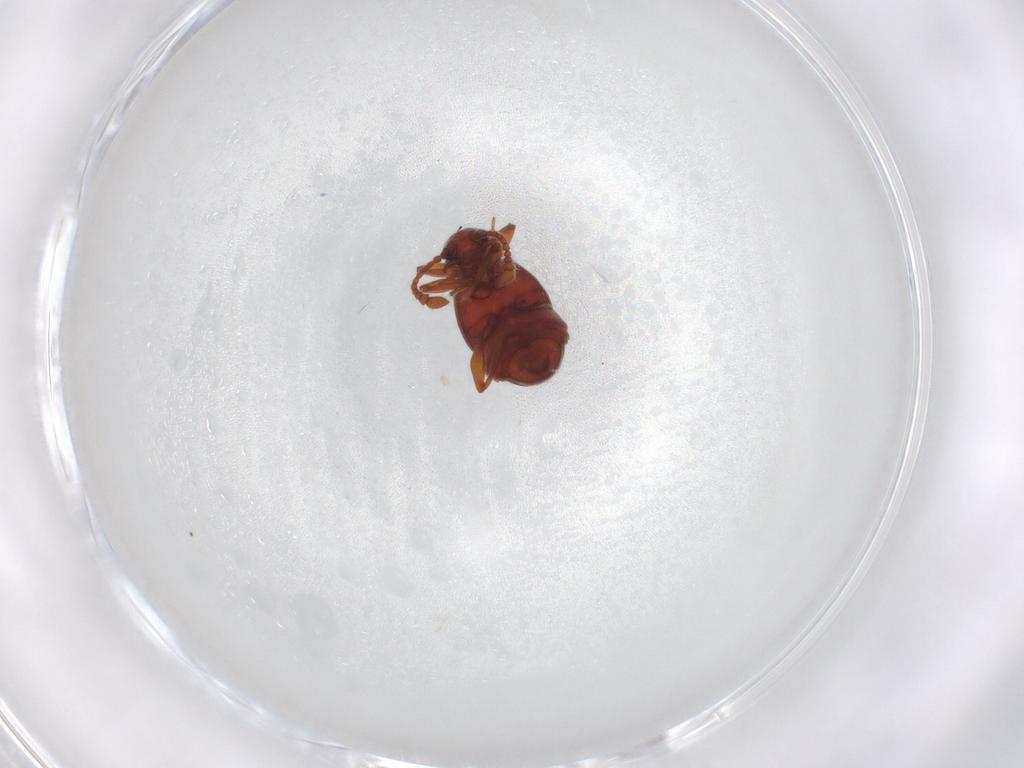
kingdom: Animalia
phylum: Arthropoda
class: Insecta
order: Coleoptera
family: Staphylinidae
